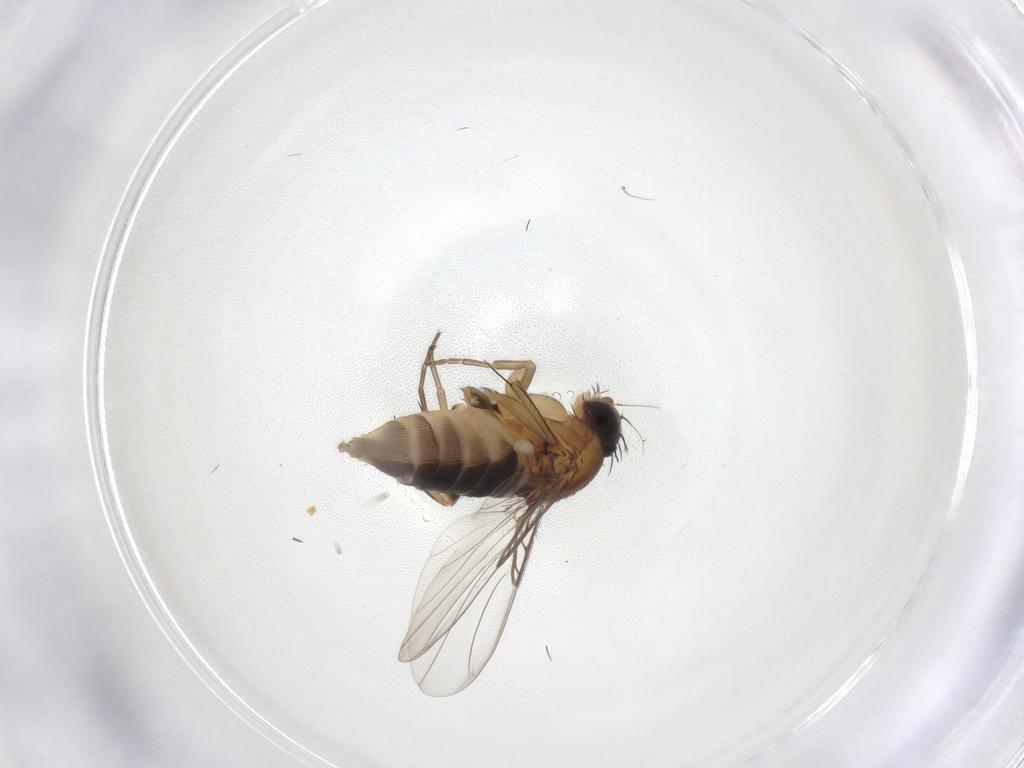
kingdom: Animalia
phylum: Arthropoda
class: Insecta
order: Diptera
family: Phoridae
